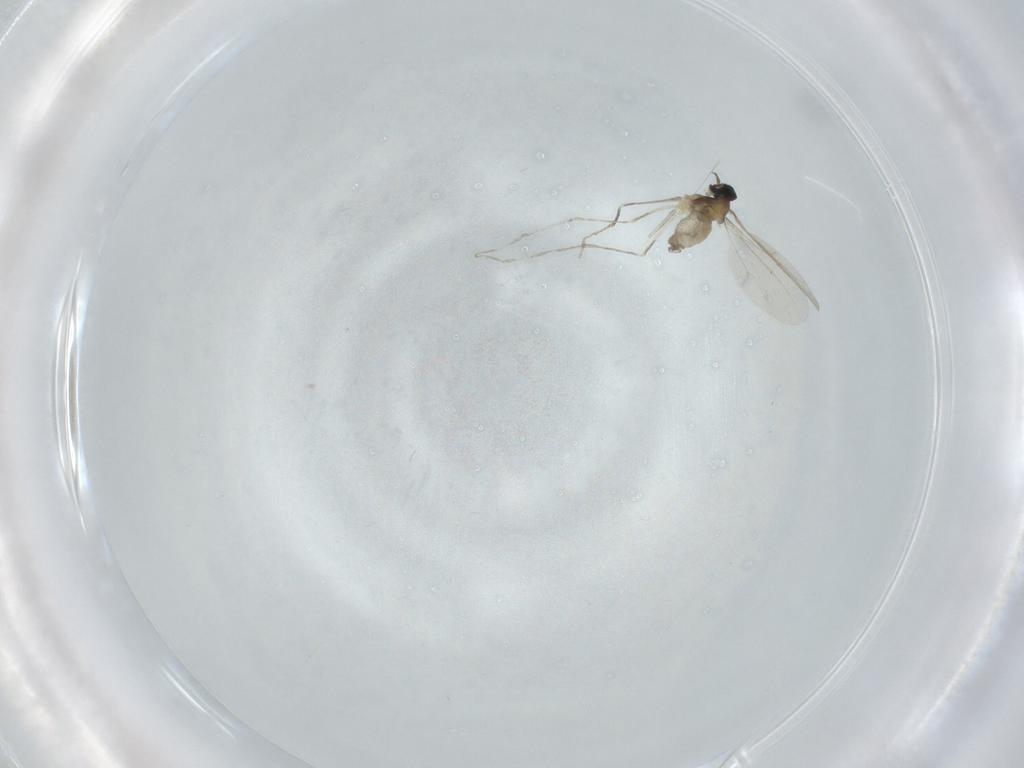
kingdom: Animalia
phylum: Arthropoda
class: Insecta
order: Diptera
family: Cecidomyiidae
